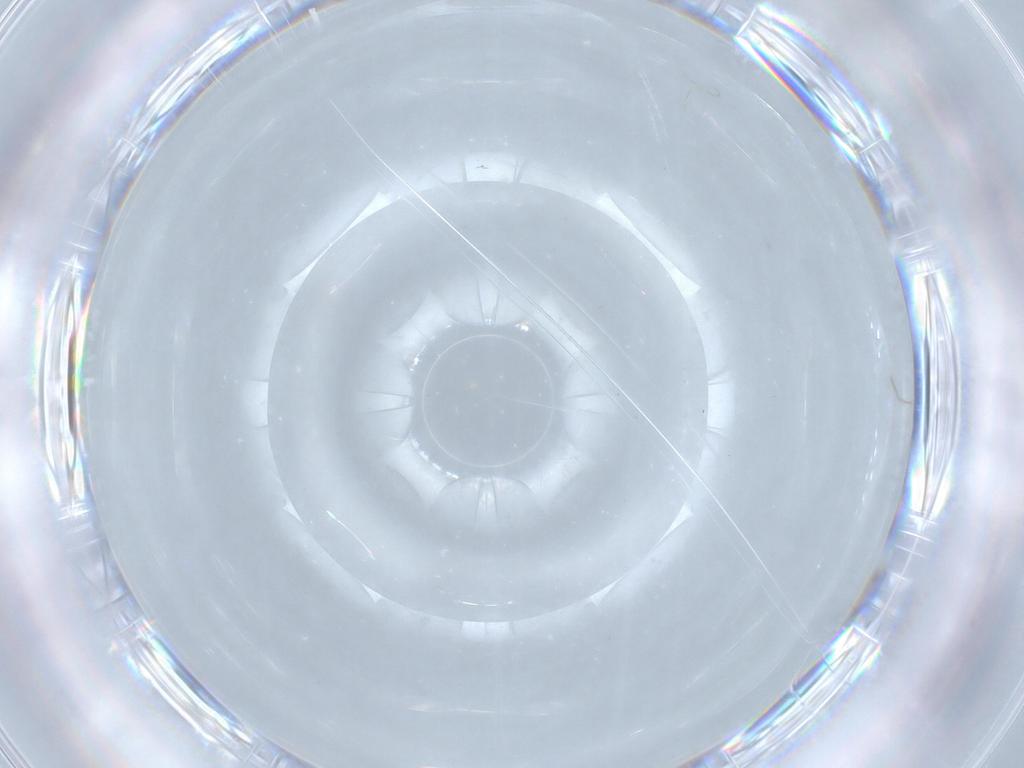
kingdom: Animalia
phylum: Arthropoda
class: Insecta
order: Diptera
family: Ceratopogonidae
